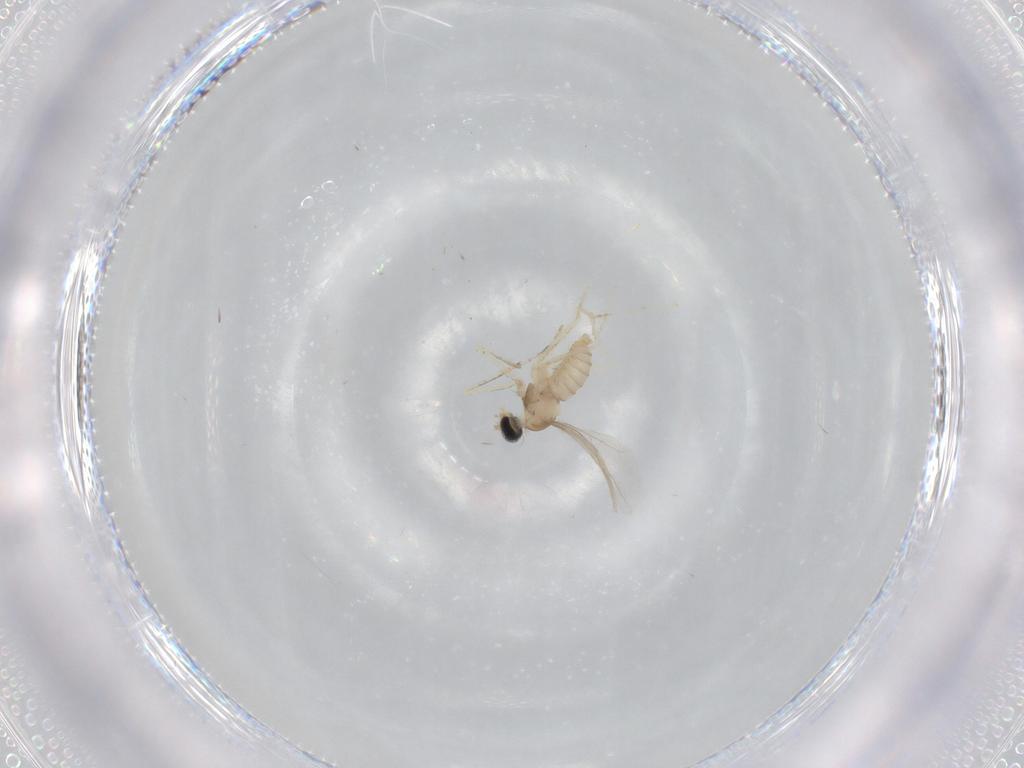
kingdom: Animalia
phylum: Arthropoda
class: Insecta
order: Diptera
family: Cecidomyiidae
